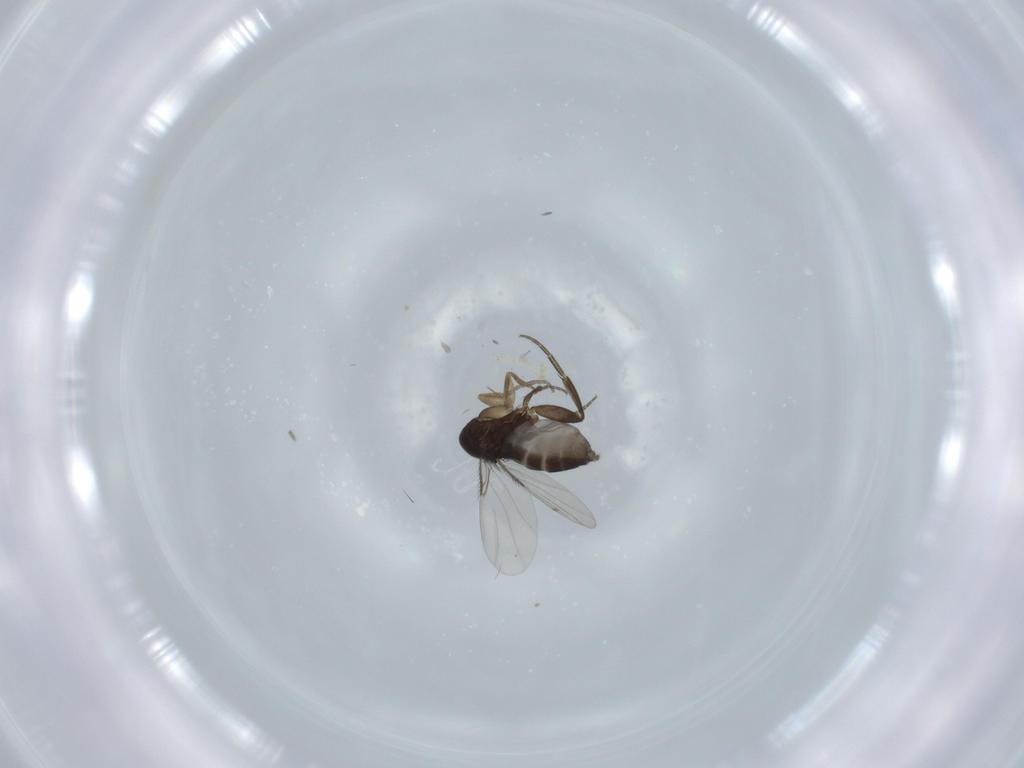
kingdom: Animalia
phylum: Arthropoda
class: Insecta
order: Diptera
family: Phoridae
